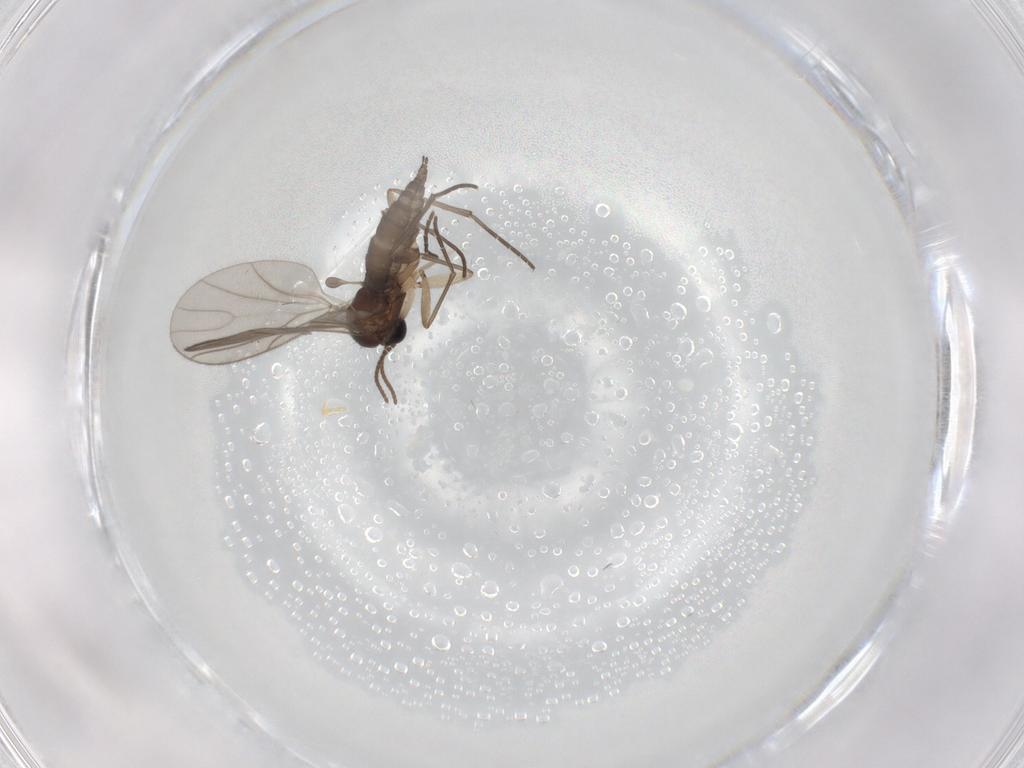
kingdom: Animalia
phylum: Arthropoda
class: Insecta
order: Diptera
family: Sciaridae
